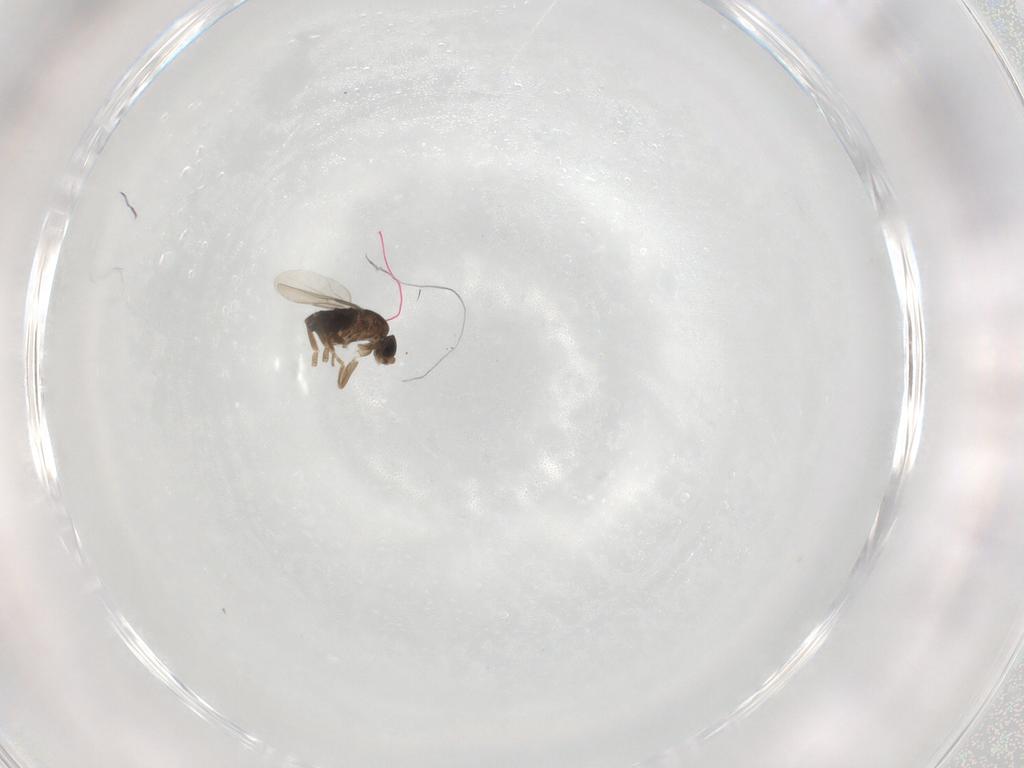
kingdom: Animalia
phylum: Arthropoda
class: Insecta
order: Diptera
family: Phoridae
